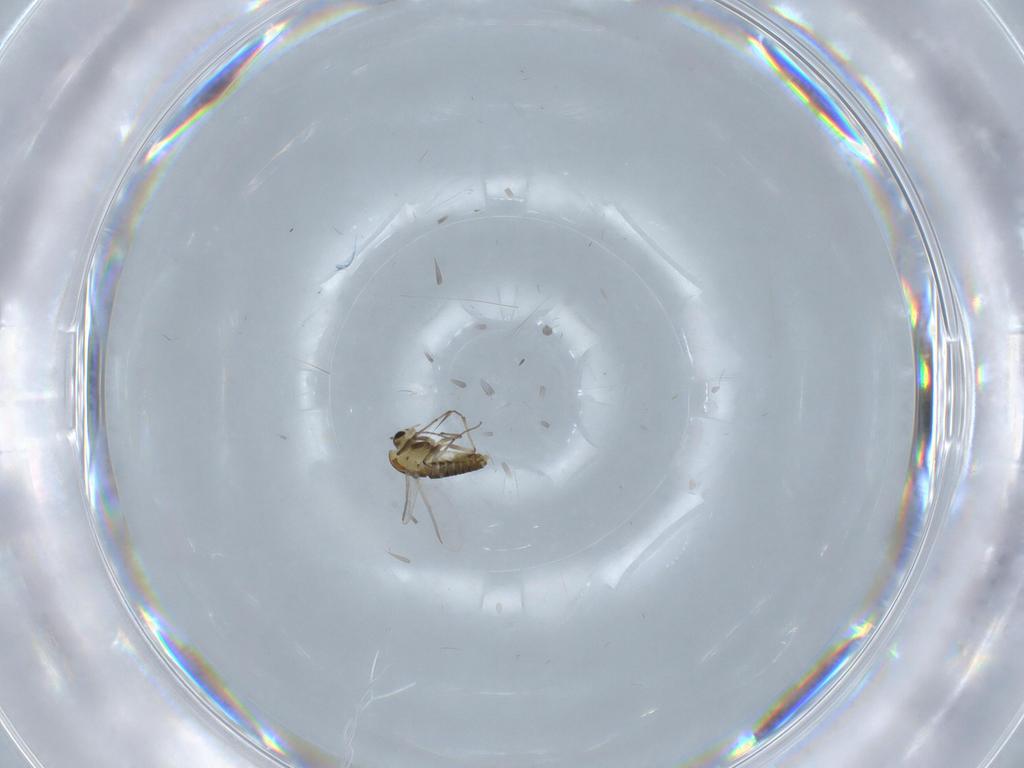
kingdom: Animalia
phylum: Arthropoda
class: Insecta
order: Diptera
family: Chironomidae
